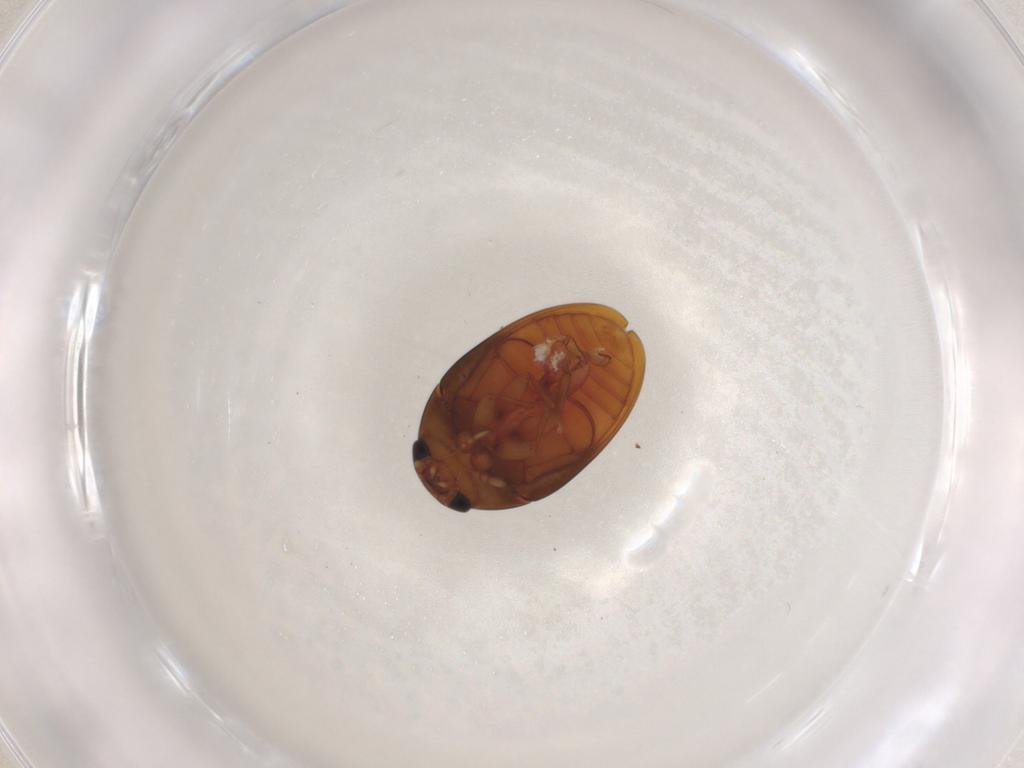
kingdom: Animalia
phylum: Arthropoda
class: Insecta
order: Coleoptera
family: Phalacridae
